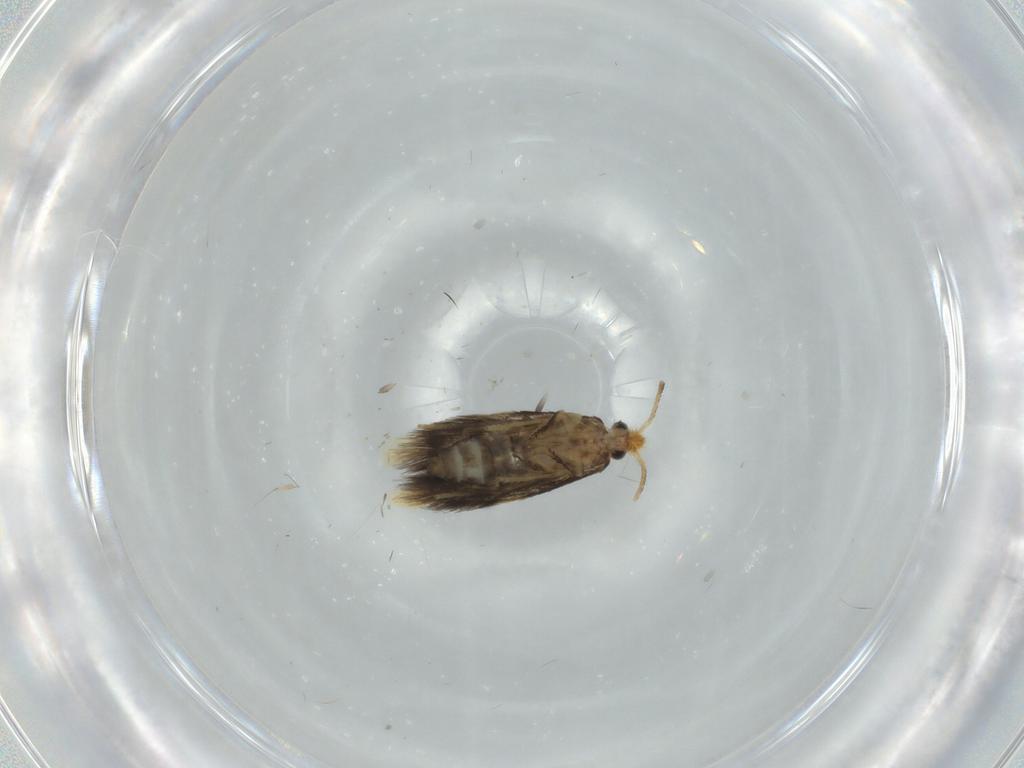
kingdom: Animalia
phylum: Arthropoda
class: Insecta
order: Lepidoptera
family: Copromorphidae
